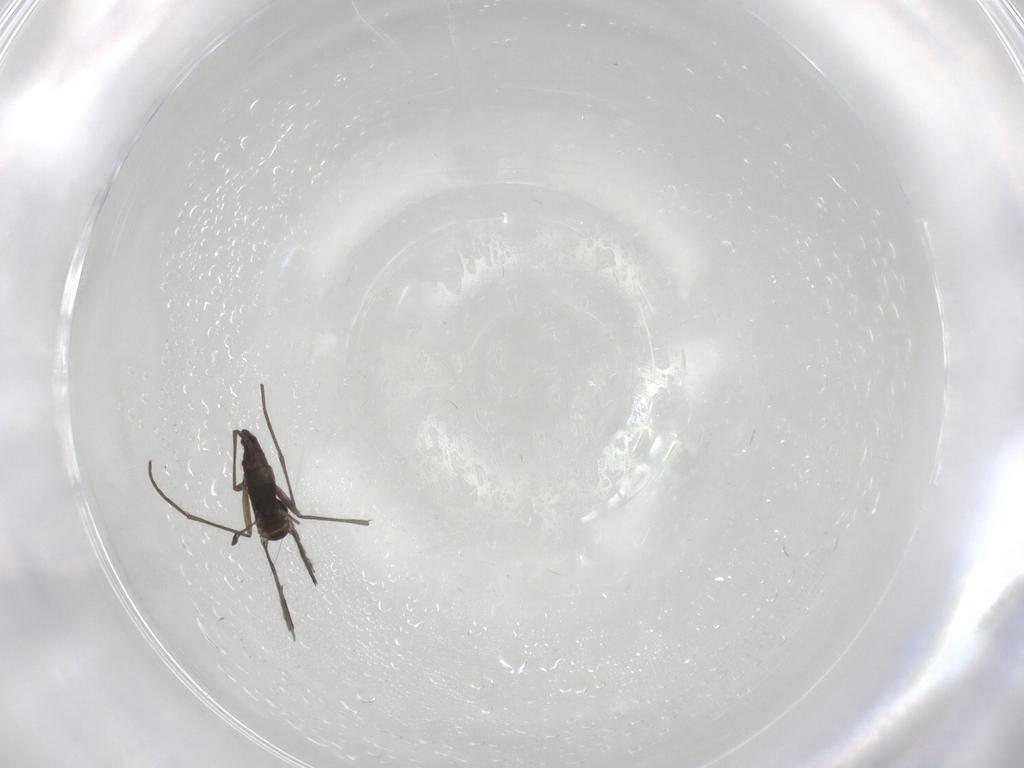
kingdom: Animalia
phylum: Arthropoda
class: Insecta
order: Diptera
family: Sciaridae
